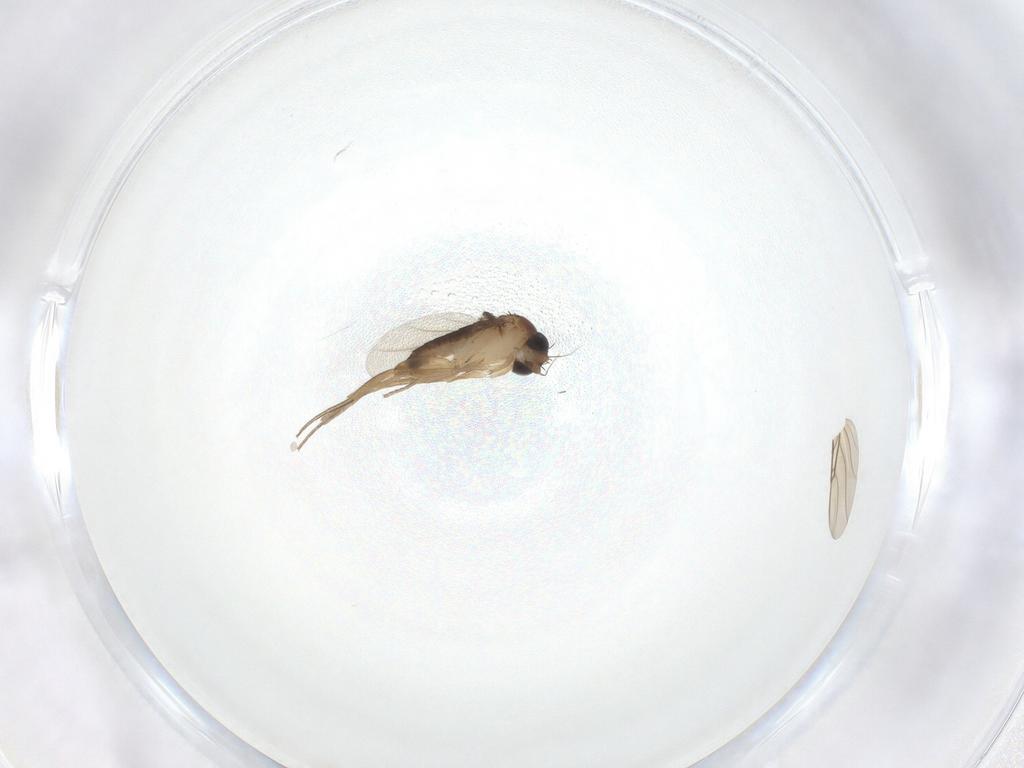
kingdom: Animalia
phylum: Arthropoda
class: Insecta
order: Diptera
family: Phoridae
